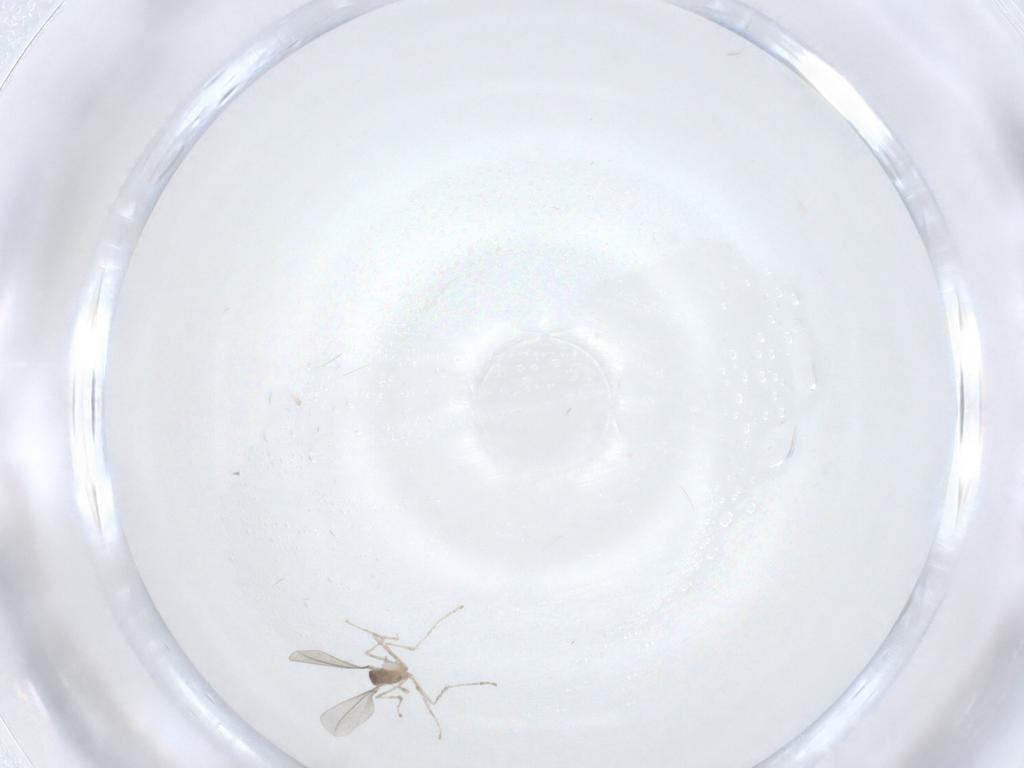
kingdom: Animalia
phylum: Arthropoda
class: Insecta
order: Diptera
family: Cecidomyiidae
